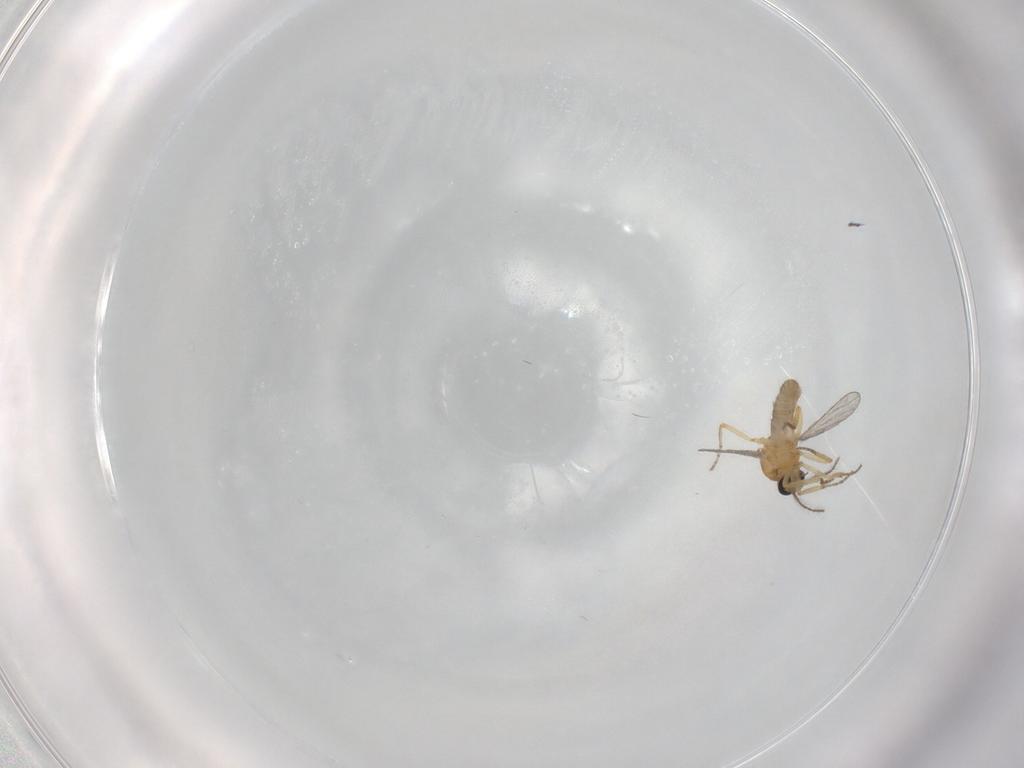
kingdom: Animalia
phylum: Arthropoda
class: Insecta
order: Diptera
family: Ceratopogonidae
